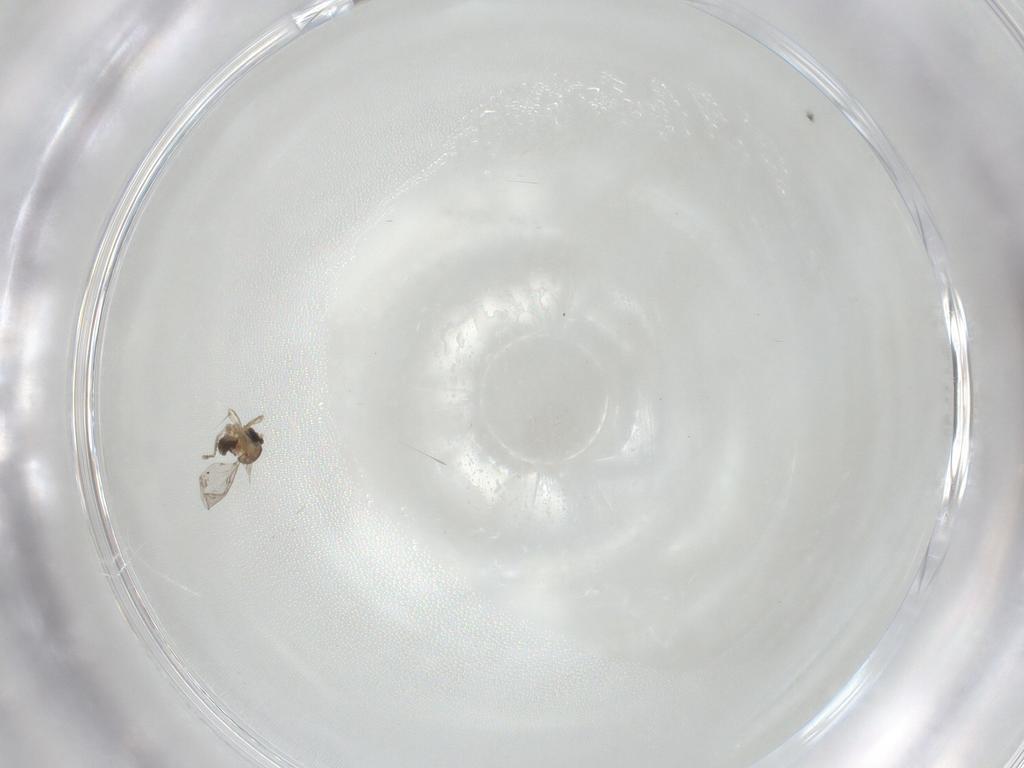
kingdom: Animalia
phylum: Arthropoda
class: Insecta
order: Diptera
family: Cecidomyiidae
